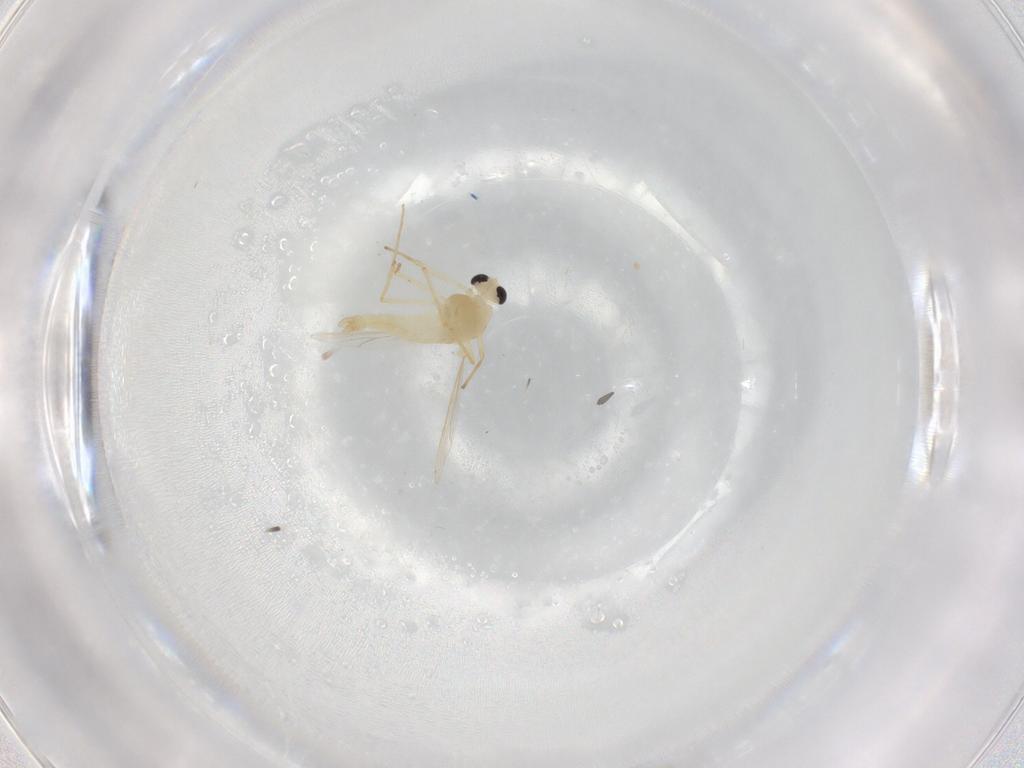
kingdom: Animalia
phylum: Arthropoda
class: Insecta
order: Diptera
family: Chironomidae
